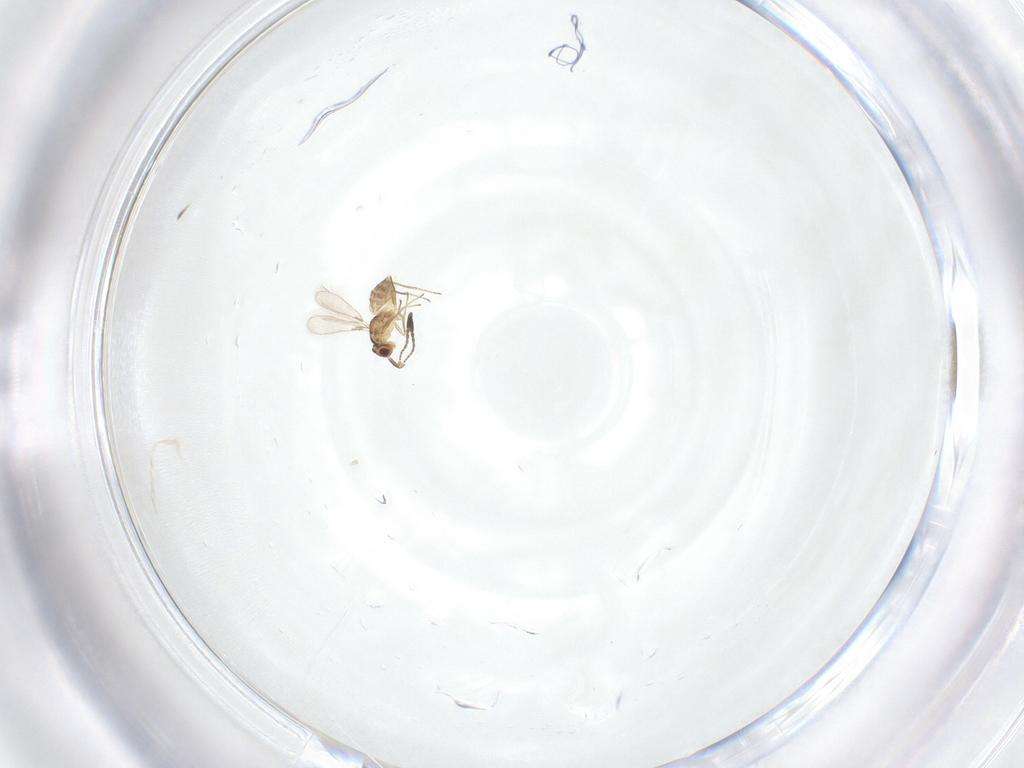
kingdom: Animalia
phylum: Arthropoda
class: Insecta
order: Hymenoptera
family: Mymaridae
